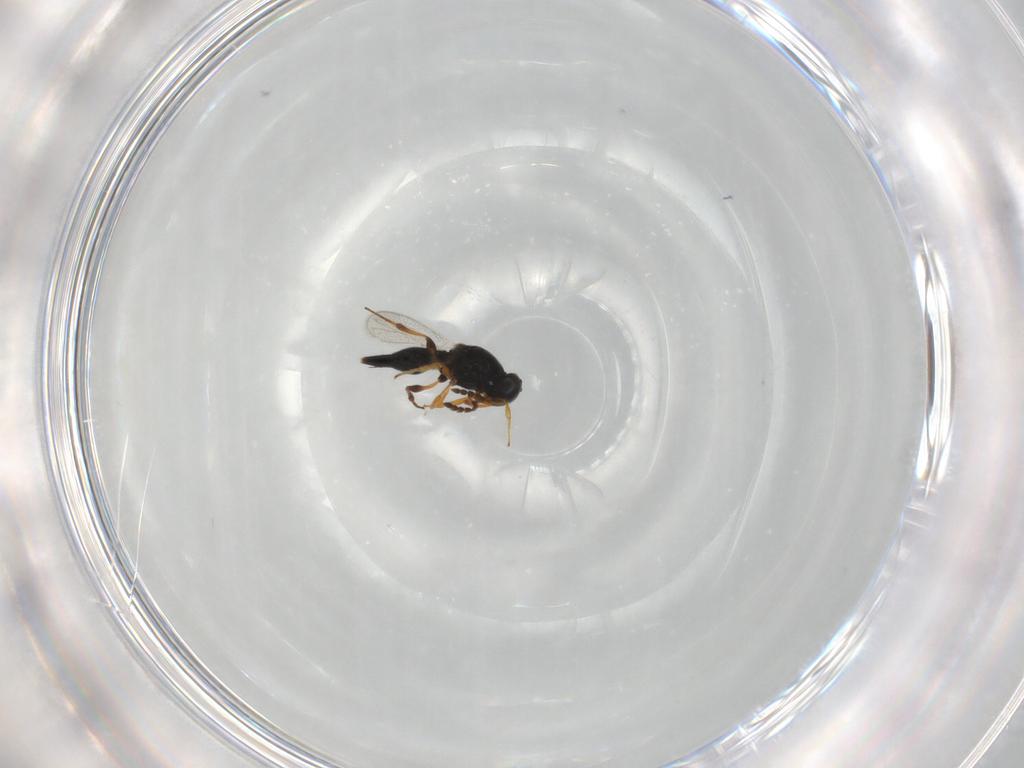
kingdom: Animalia
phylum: Arthropoda
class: Insecta
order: Hymenoptera
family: Platygastridae
